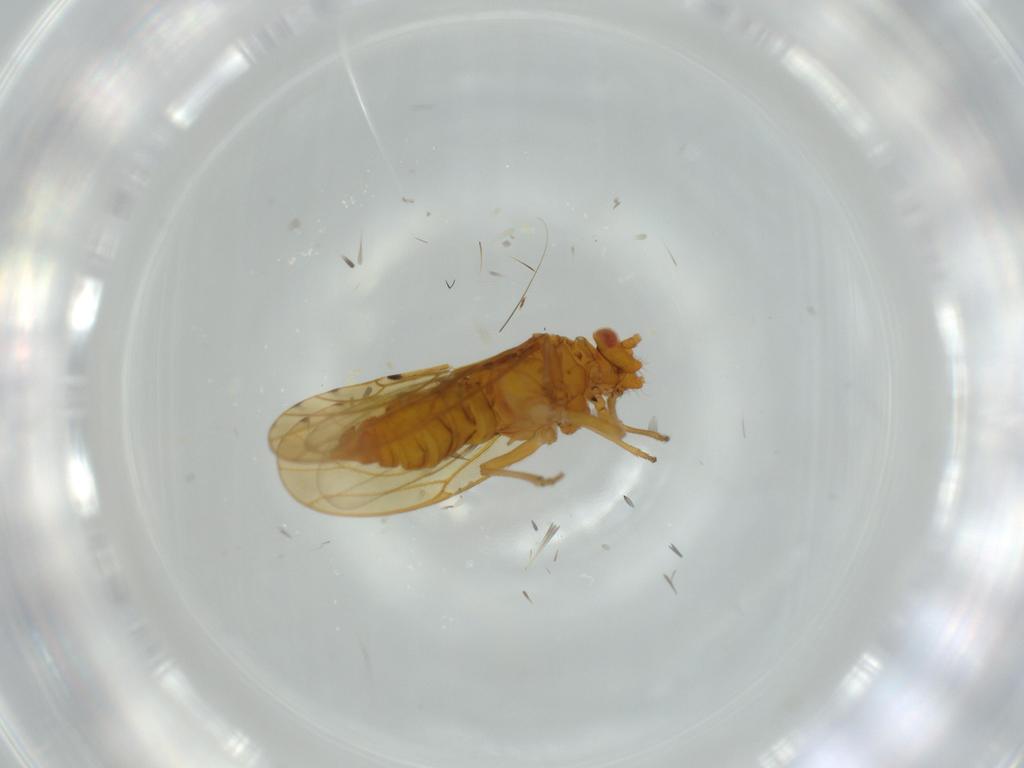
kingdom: Animalia
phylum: Arthropoda
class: Insecta
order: Hemiptera
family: Cercopidae
